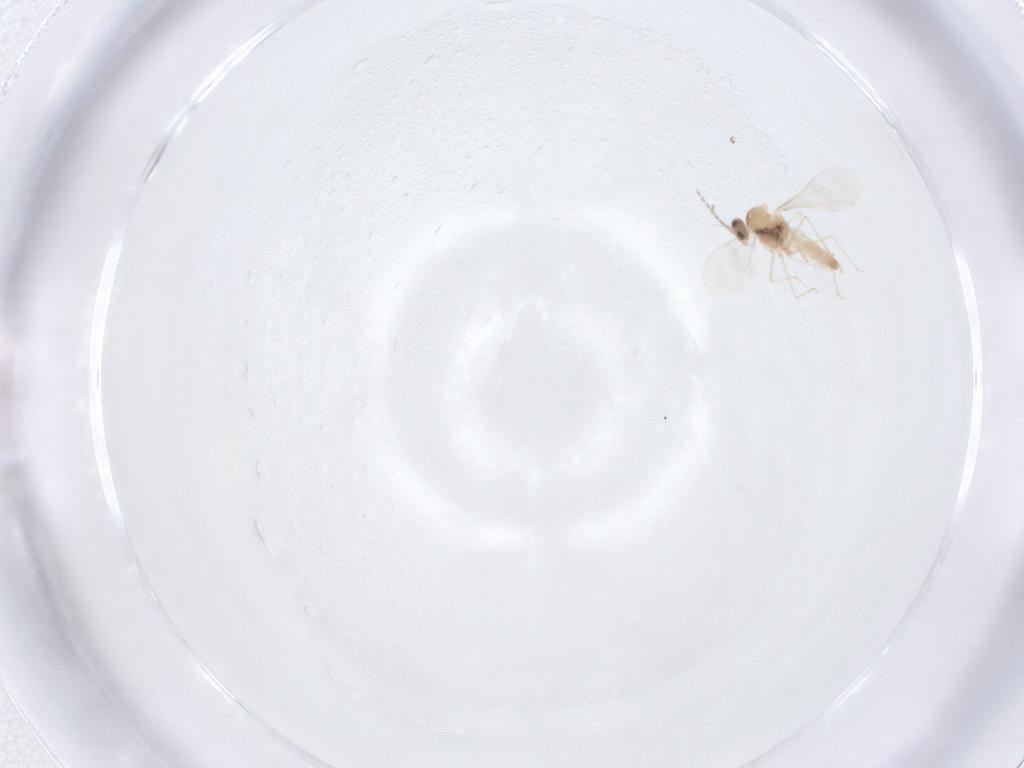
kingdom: Animalia
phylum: Arthropoda
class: Insecta
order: Diptera
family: Cecidomyiidae
